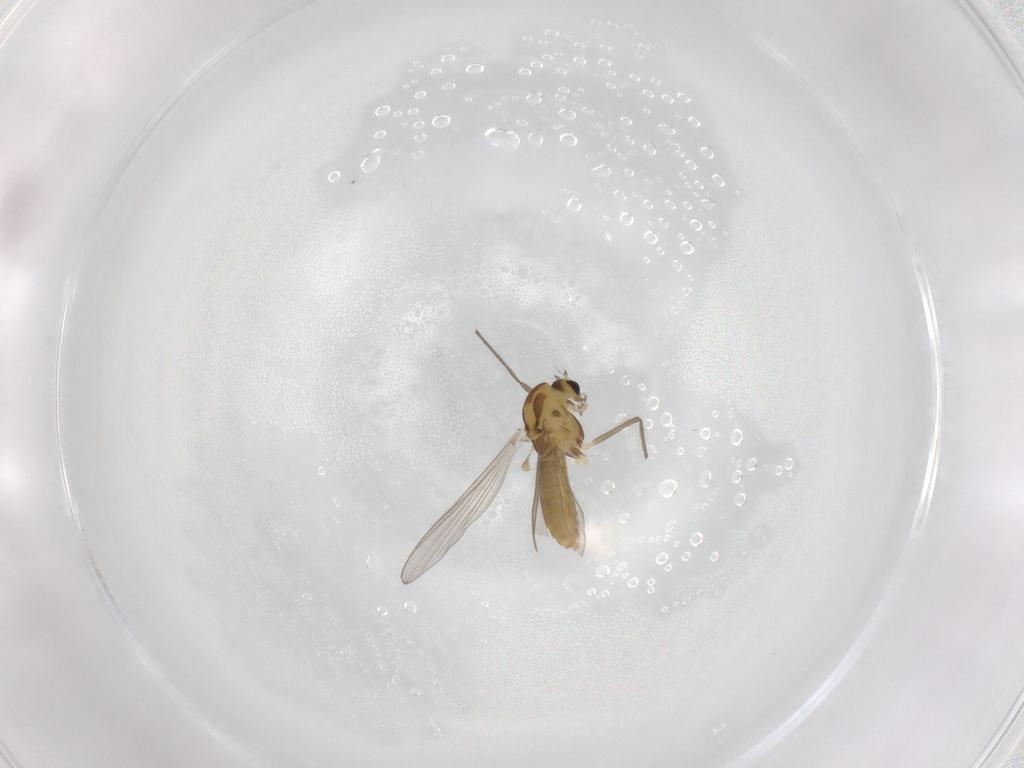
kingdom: Animalia
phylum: Arthropoda
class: Insecta
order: Diptera
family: Chironomidae
